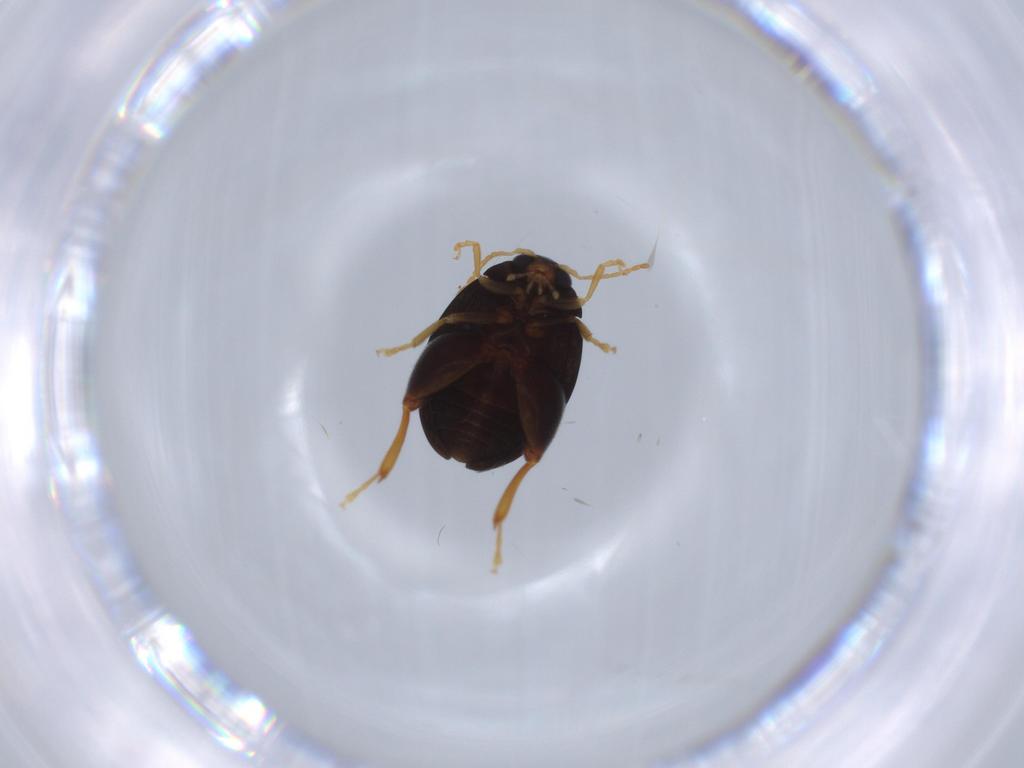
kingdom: Animalia
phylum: Arthropoda
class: Insecta
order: Coleoptera
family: Chrysomelidae
